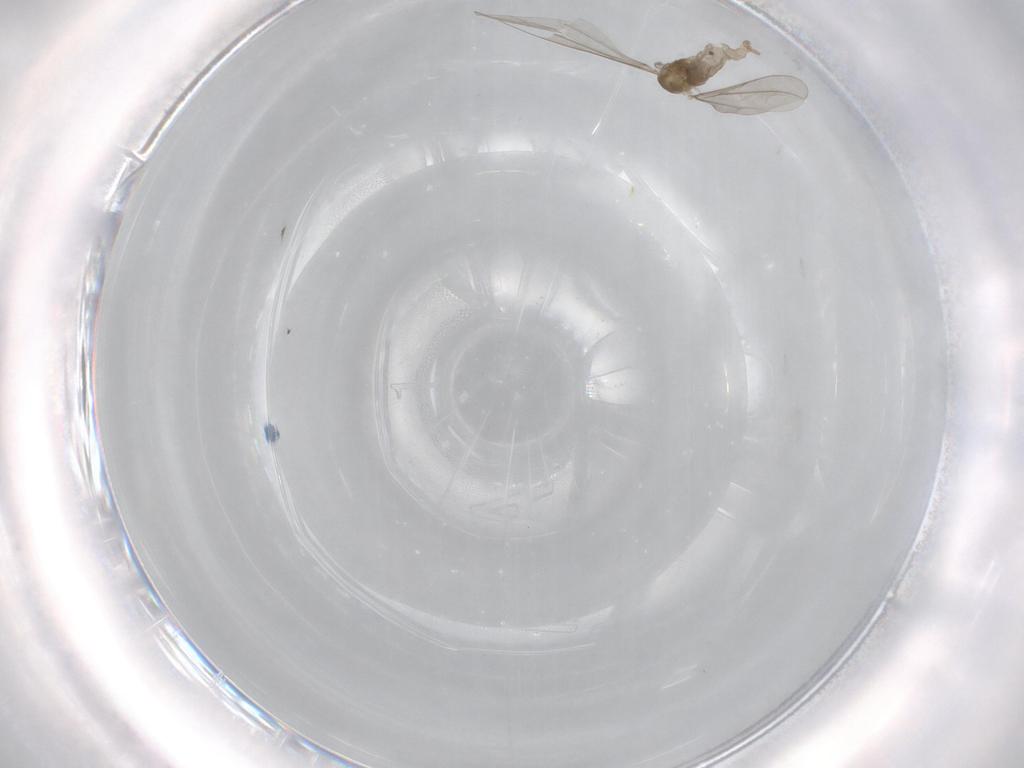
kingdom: Animalia
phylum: Arthropoda
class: Insecta
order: Diptera
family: Cecidomyiidae
